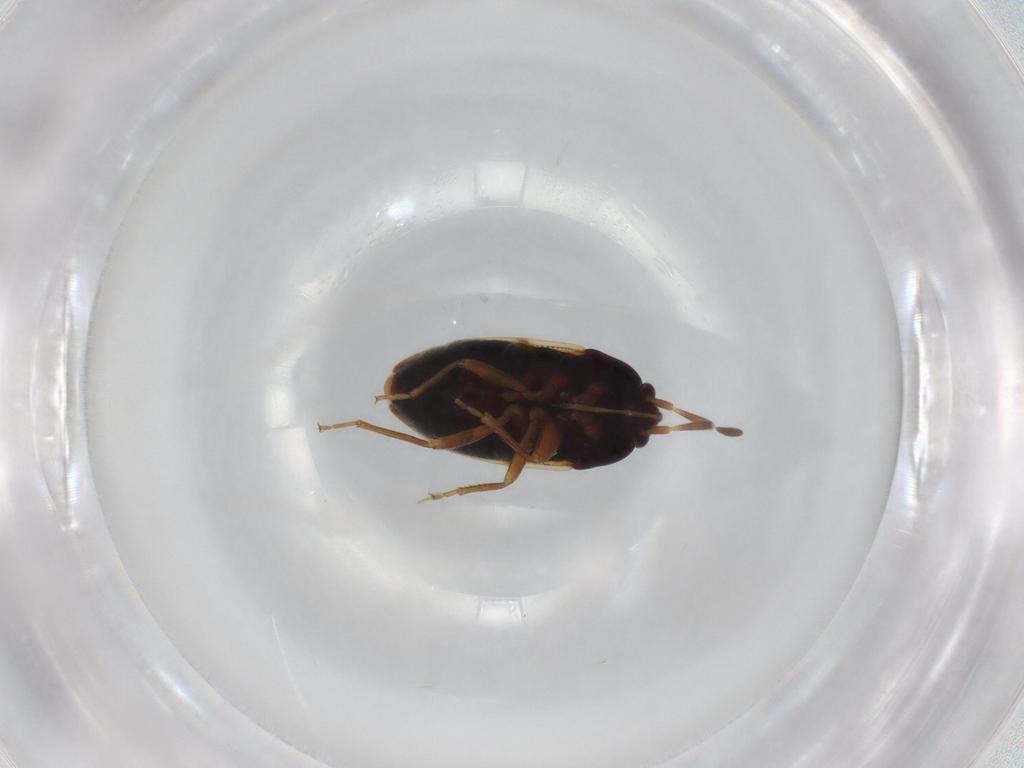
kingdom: Animalia
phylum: Arthropoda
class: Insecta
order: Hemiptera
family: Rhyparochromidae
